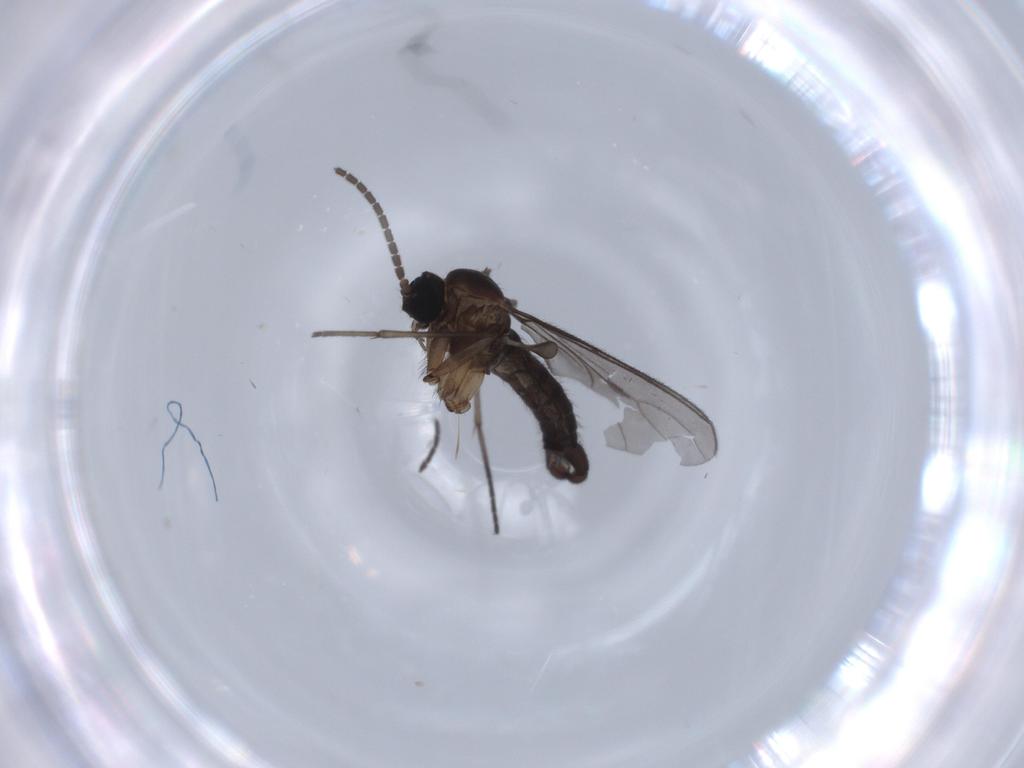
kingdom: Animalia
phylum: Arthropoda
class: Insecta
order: Diptera
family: Sciaridae
